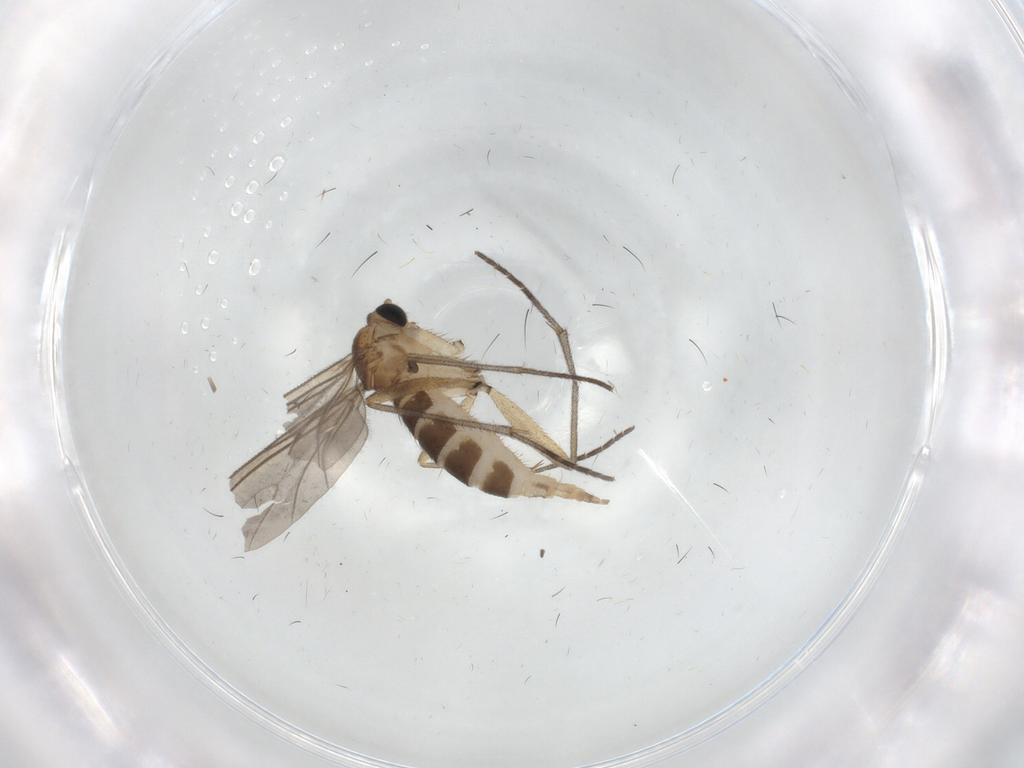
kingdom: Animalia
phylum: Arthropoda
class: Insecta
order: Diptera
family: Sciaridae
